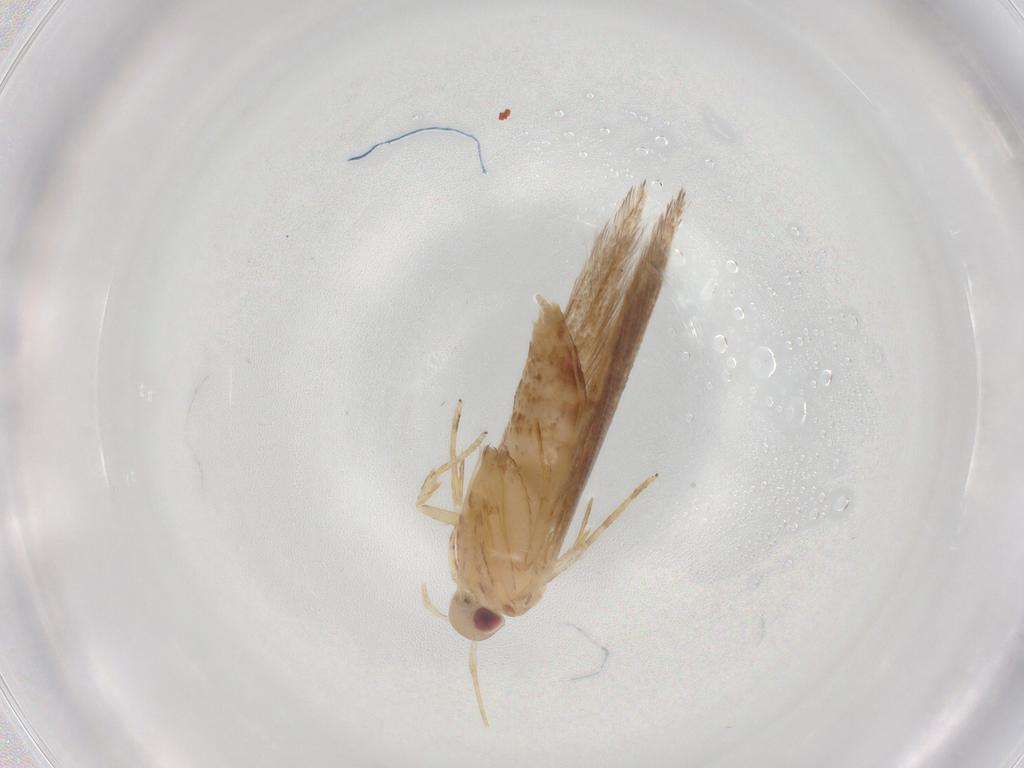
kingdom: Animalia
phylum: Arthropoda
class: Insecta
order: Lepidoptera
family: Cosmopterigidae
